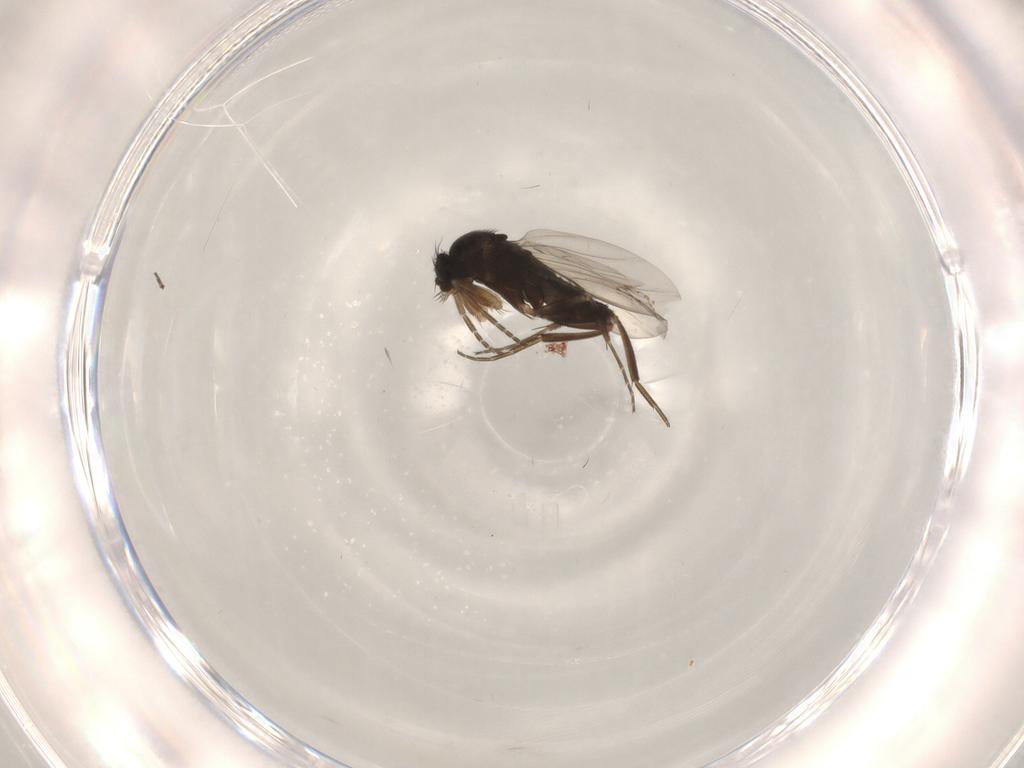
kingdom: Animalia
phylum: Arthropoda
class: Insecta
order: Diptera
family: Phoridae
